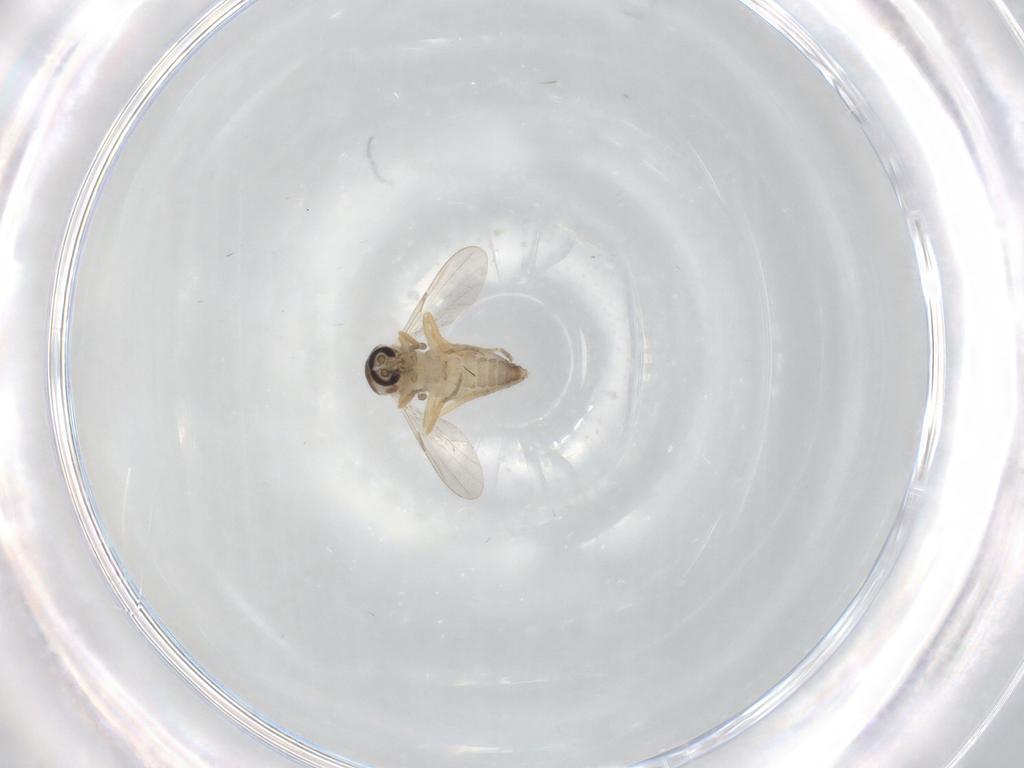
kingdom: Animalia
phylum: Arthropoda
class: Insecta
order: Diptera
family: Ceratopogonidae
